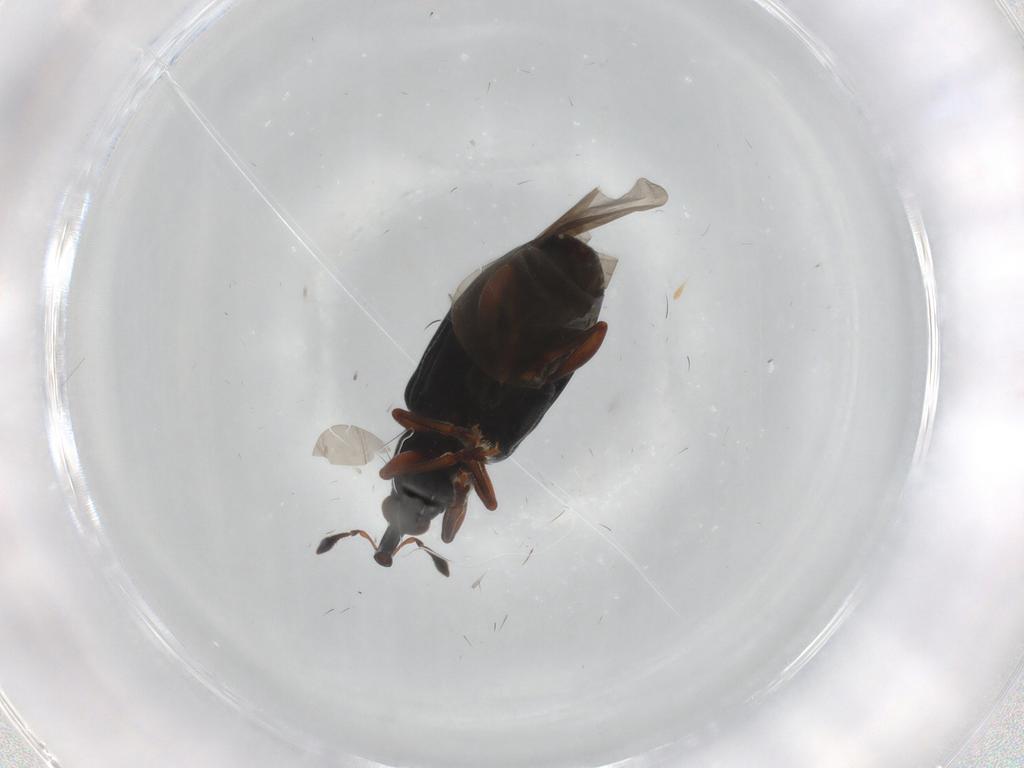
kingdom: Animalia
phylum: Arthropoda
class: Insecta
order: Coleoptera
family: Curculionidae
